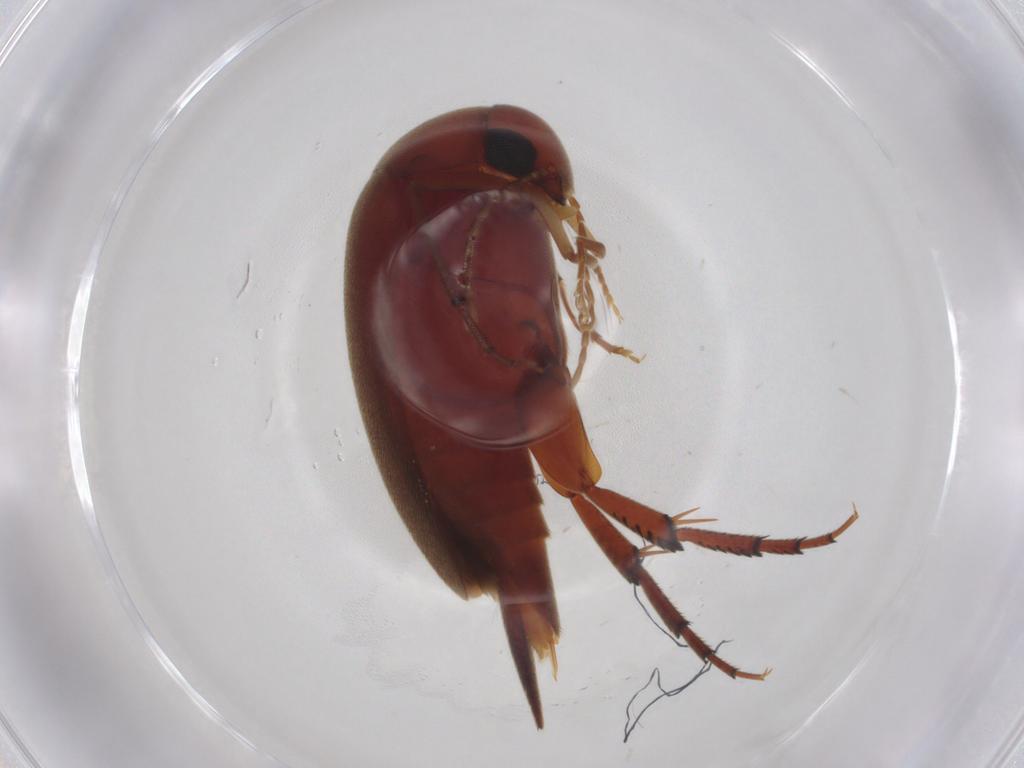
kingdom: Animalia
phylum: Arthropoda
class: Insecta
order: Coleoptera
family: Mordellidae
